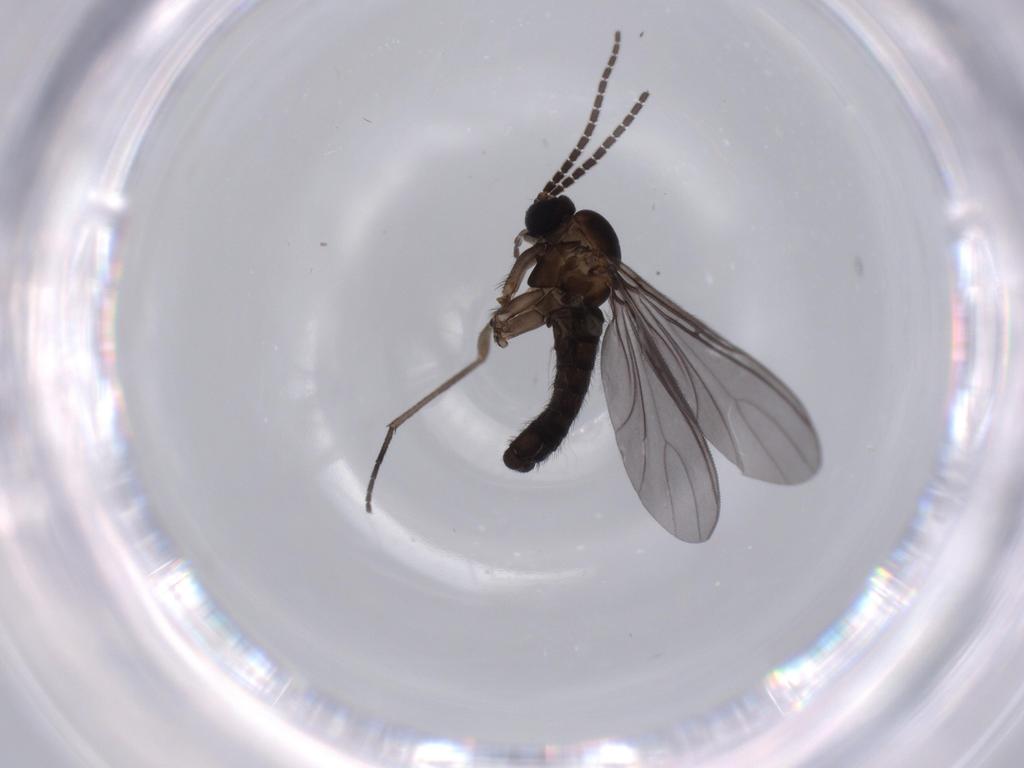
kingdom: Animalia
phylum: Arthropoda
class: Insecta
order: Diptera
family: Sciaridae
